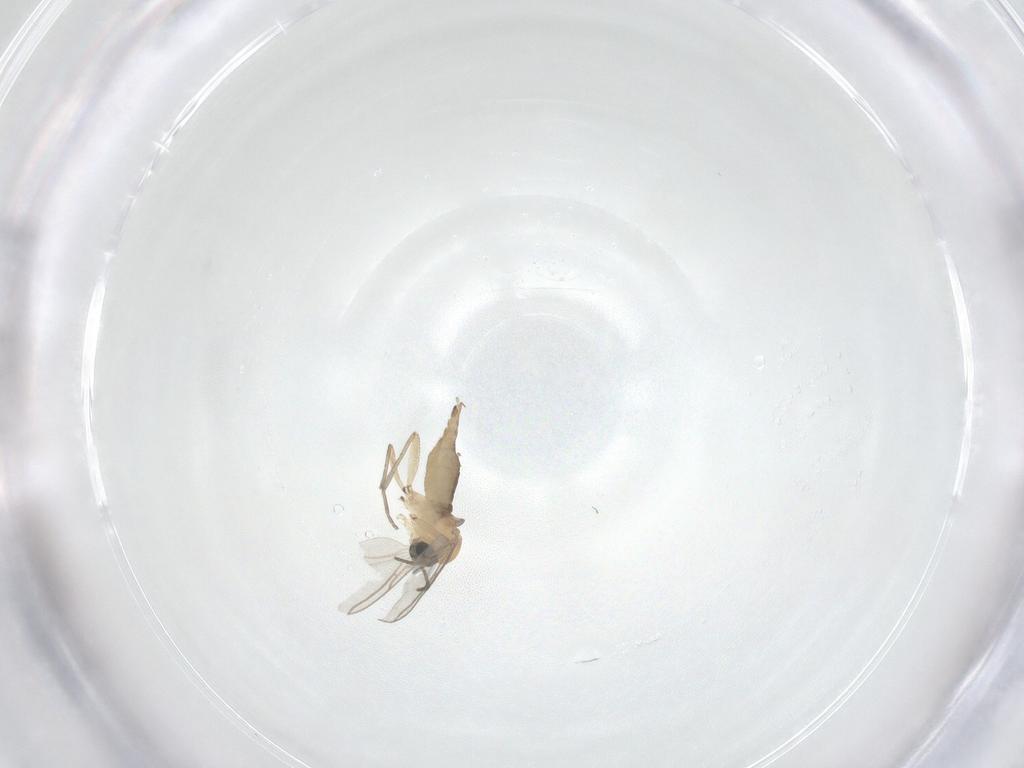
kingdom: Animalia
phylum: Arthropoda
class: Insecta
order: Diptera
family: Sciaridae
